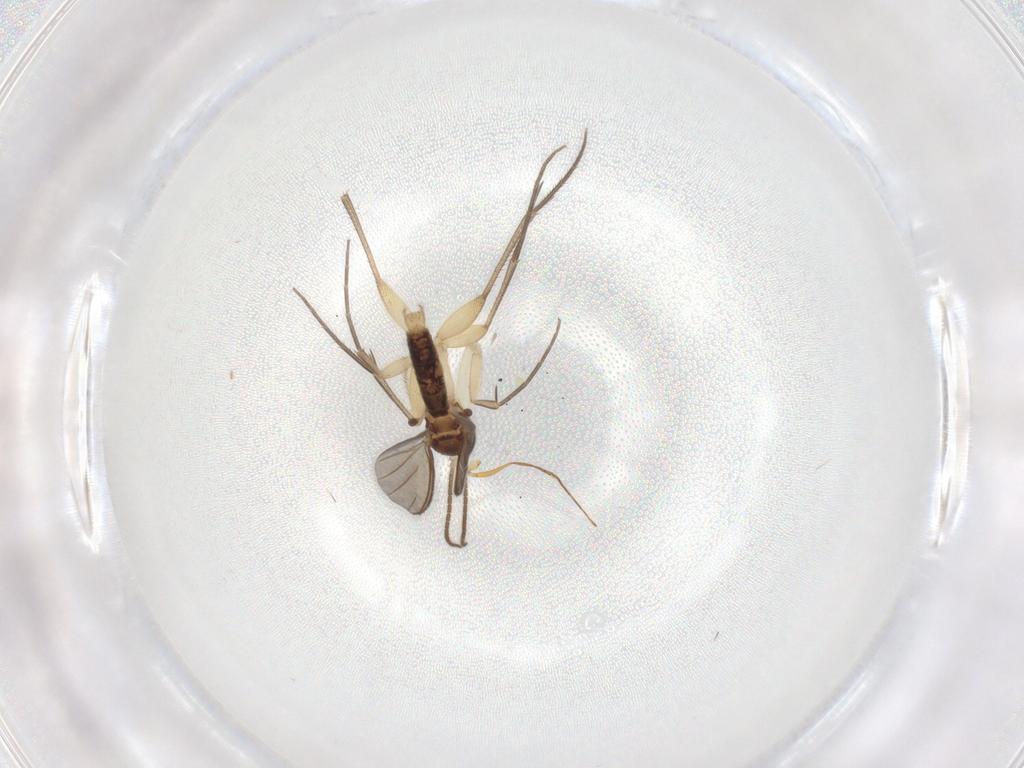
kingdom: Animalia
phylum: Arthropoda
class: Insecta
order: Diptera
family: Mycetophilidae
